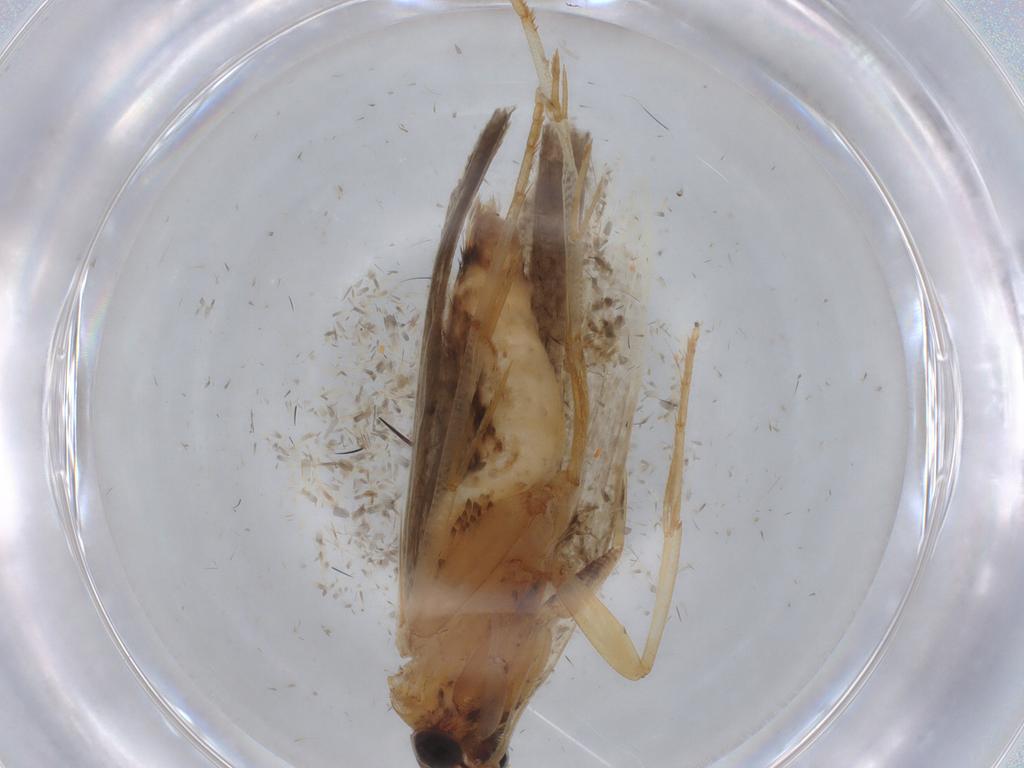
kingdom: Animalia
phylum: Arthropoda
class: Insecta
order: Lepidoptera
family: Gelechiidae
